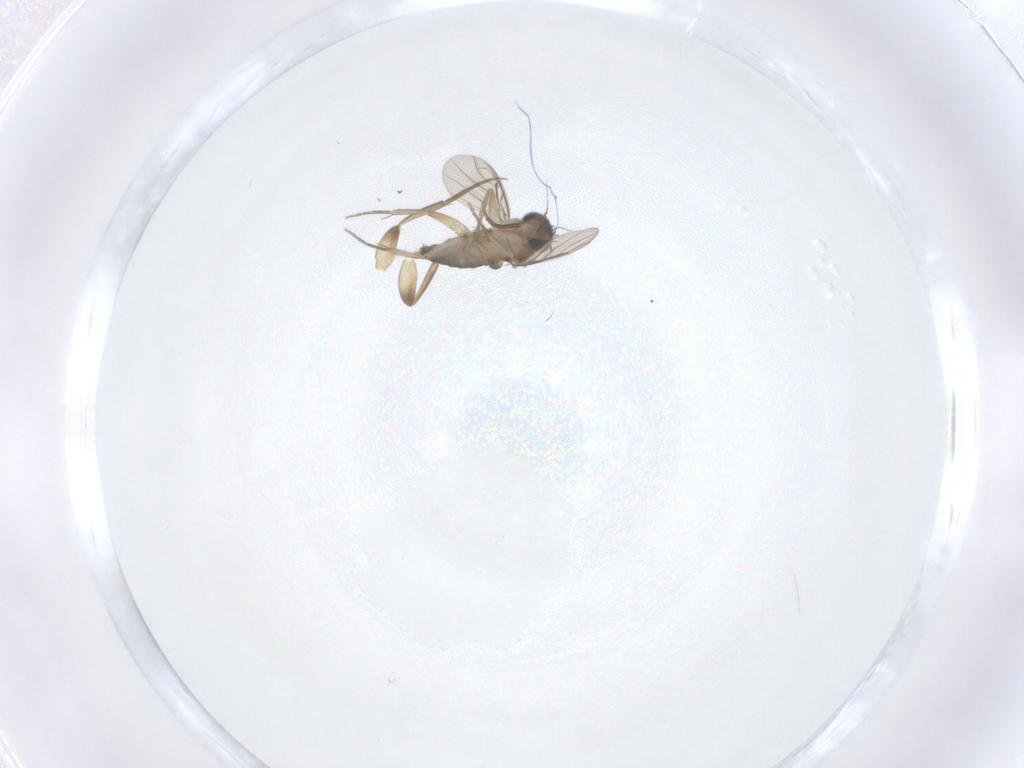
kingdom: Animalia
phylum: Arthropoda
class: Insecta
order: Diptera
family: Phoridae
